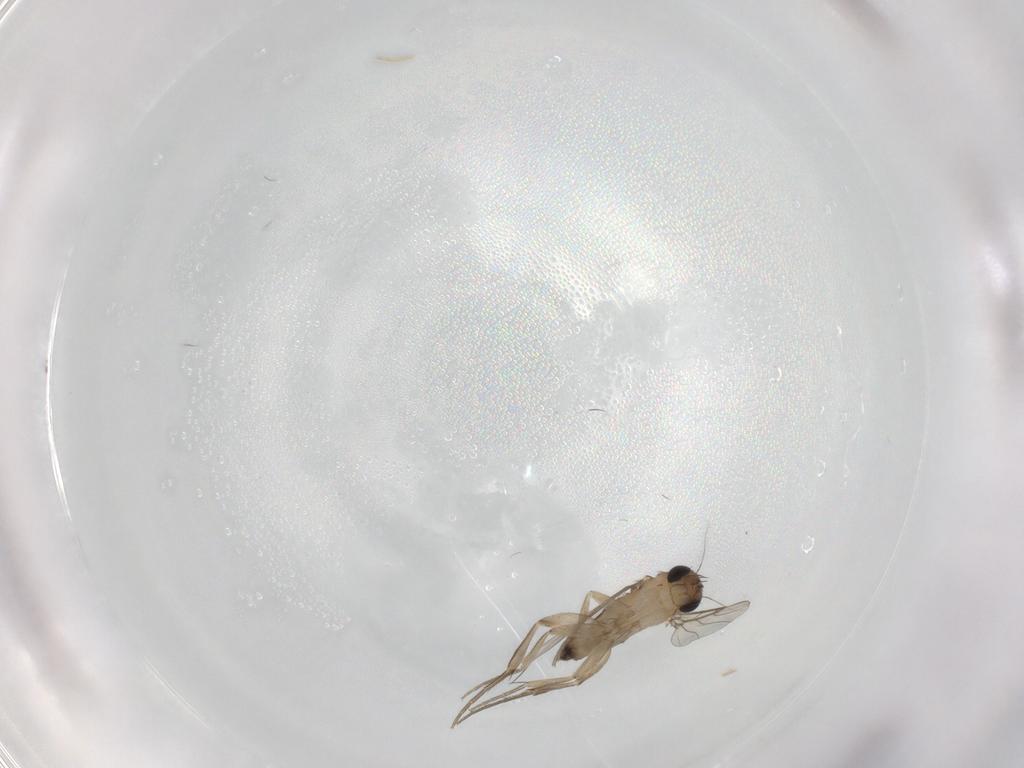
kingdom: Animalia
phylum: Arthropoda
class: Insecta
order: Diptera
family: Phoridae
